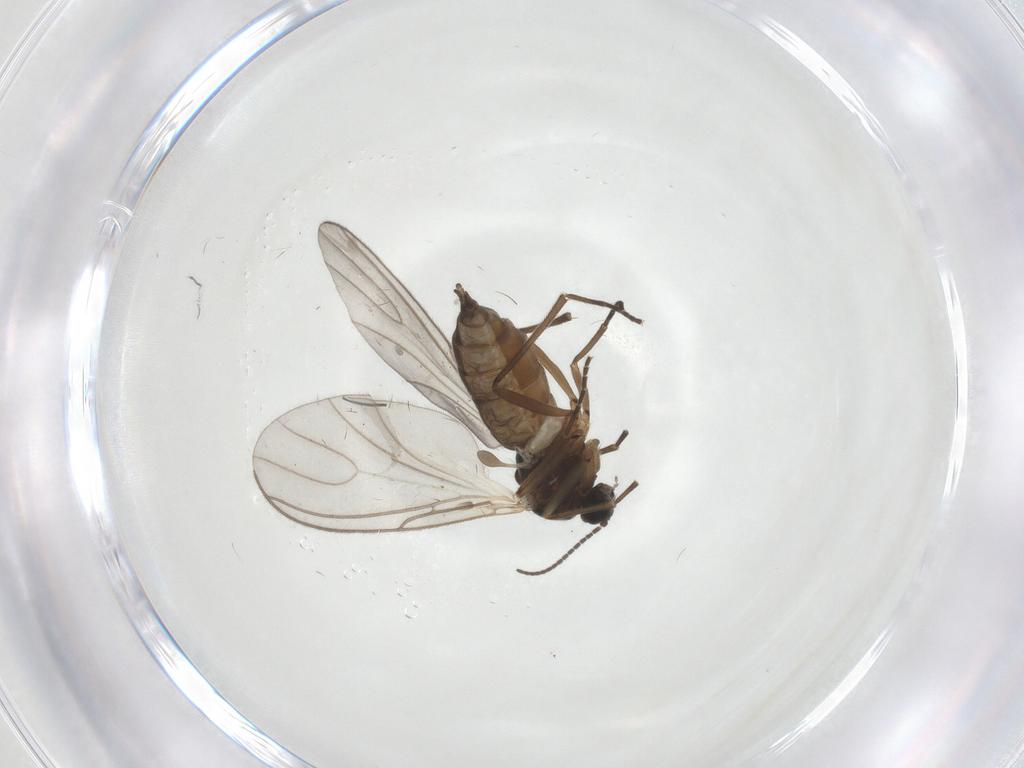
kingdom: Animalia
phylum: Arthropoda
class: Insecta
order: Diptera
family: Sciaridae
